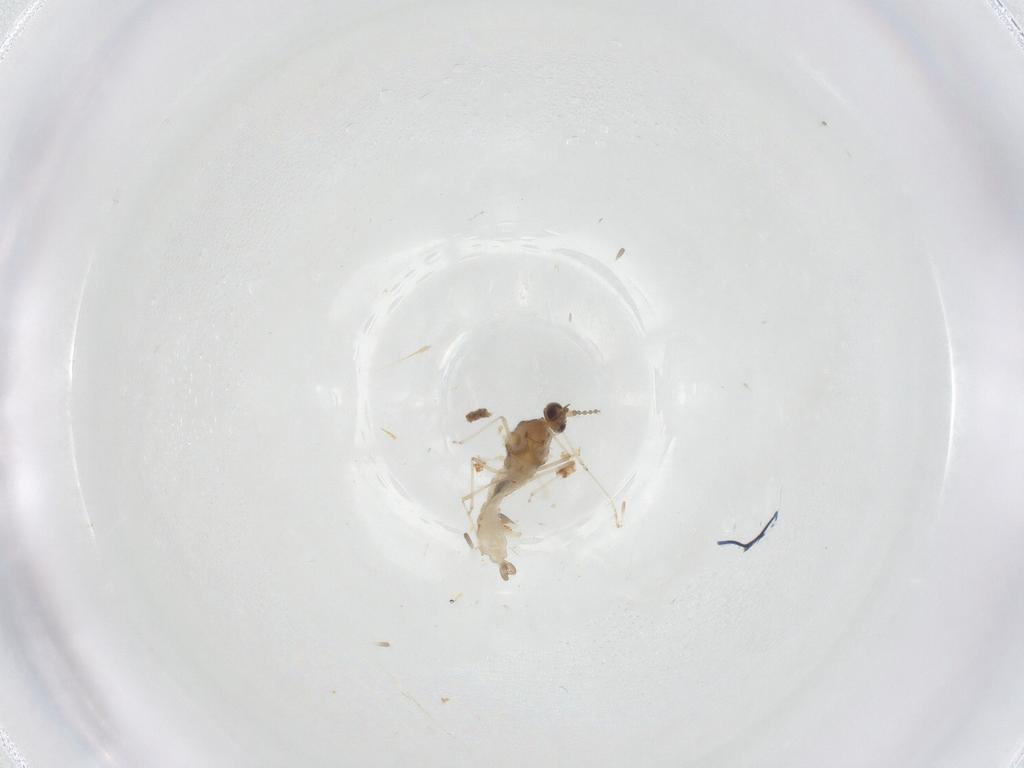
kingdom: Animalia
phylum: Arthropoda
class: Insecta
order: Diptera
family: Cecidomyiidae
